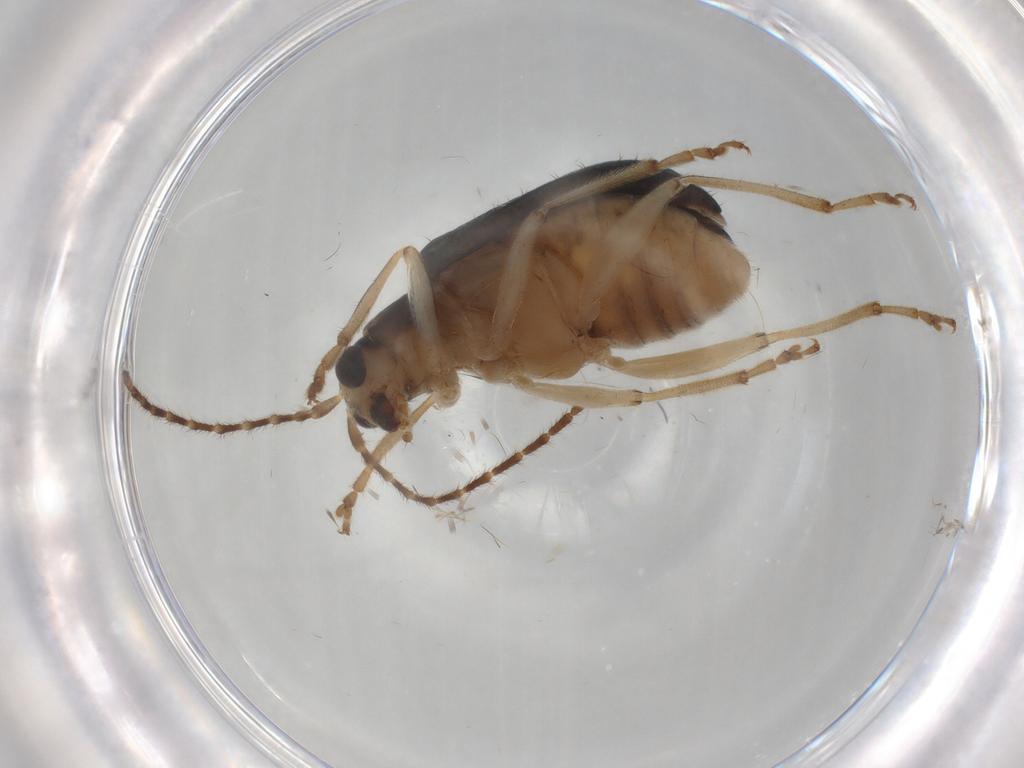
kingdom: Animalia
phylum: Arthropoda
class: Insecta
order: Coleoptera
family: Chrysomelidae
